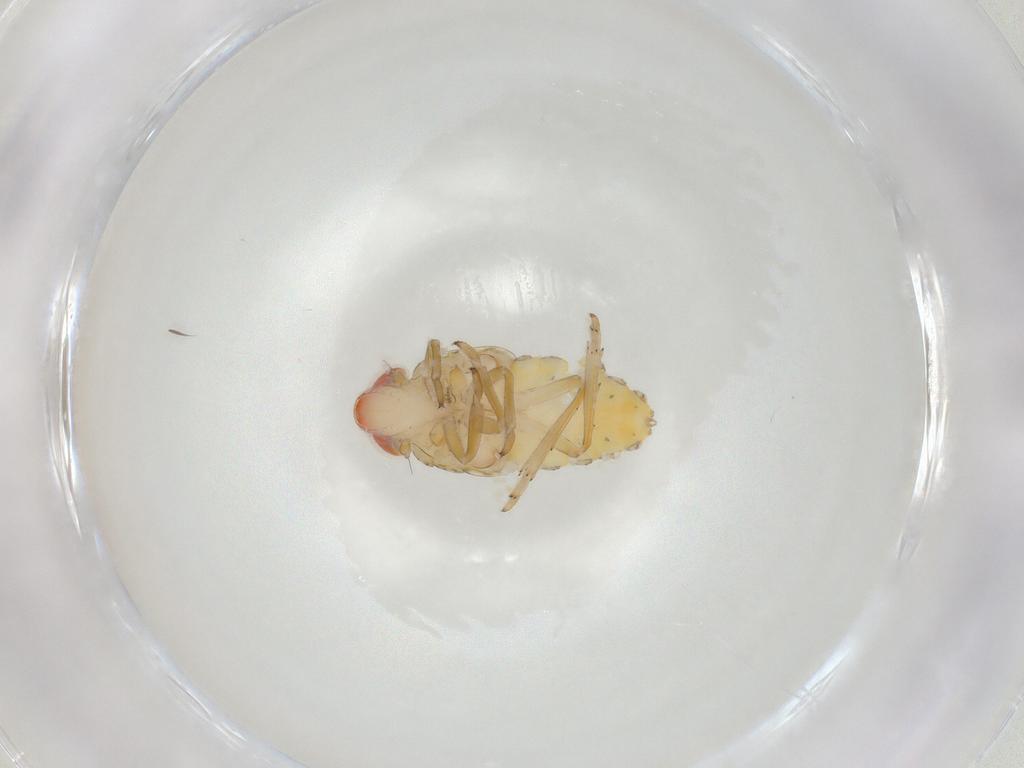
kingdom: Animalia
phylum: Arthropoda
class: Insecta
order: Hemiptera
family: Issidae
